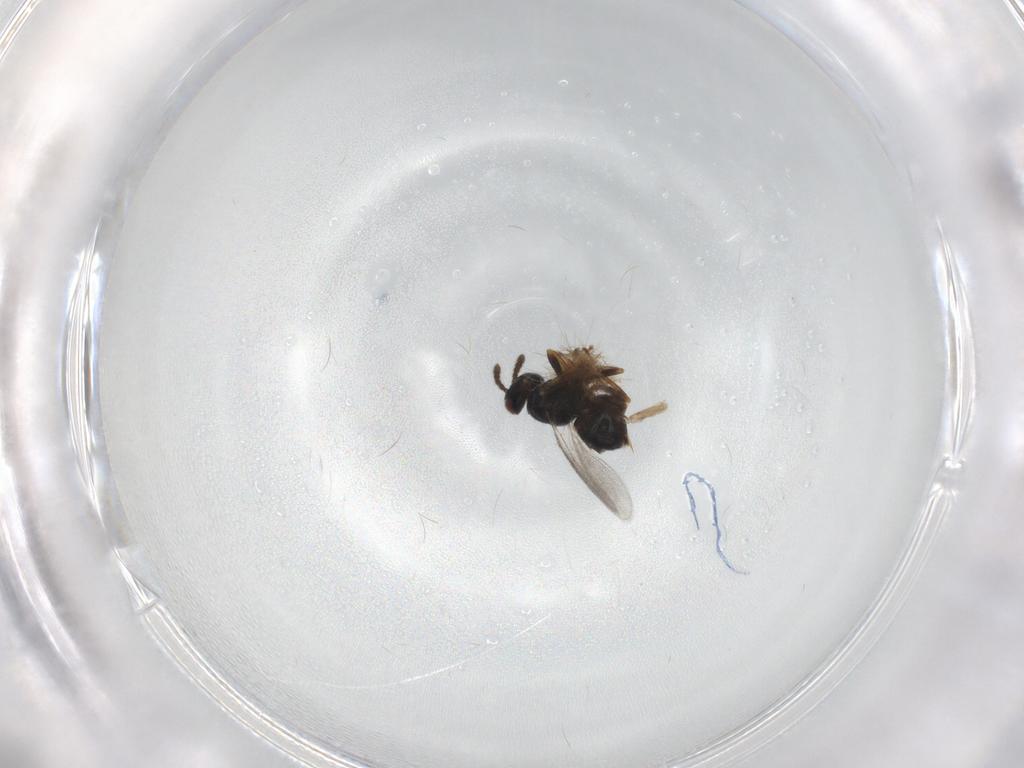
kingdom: Animalia
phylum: Arthropoda
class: Insecta
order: Hymenoptera
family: Eulophidae
